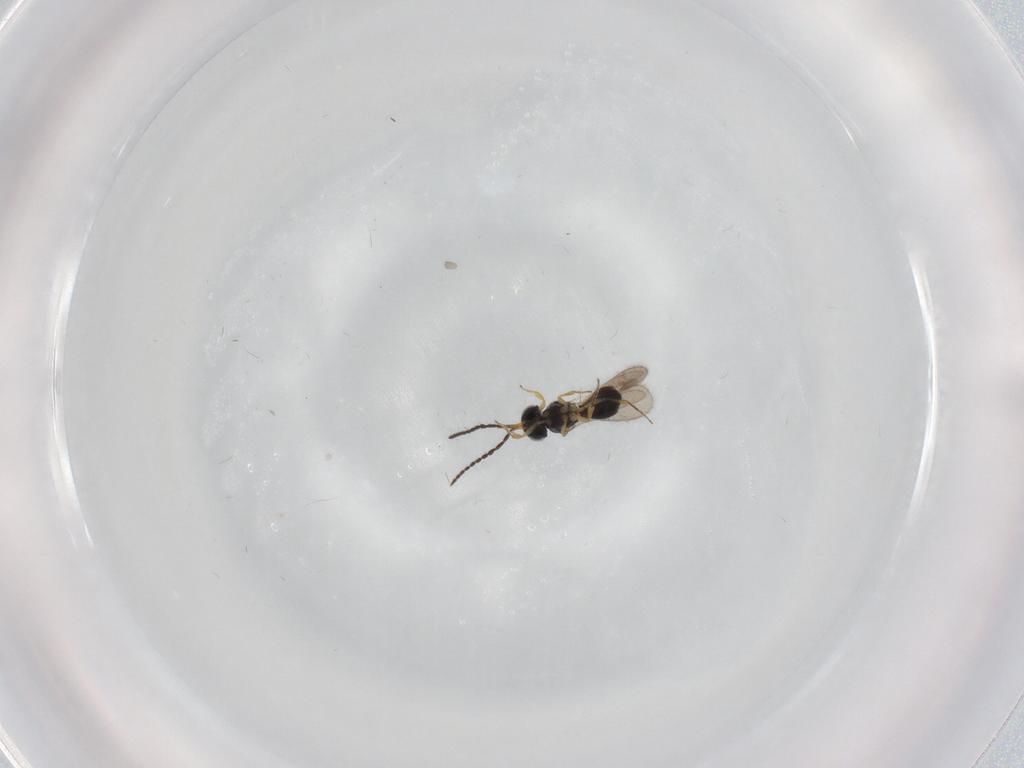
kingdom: Animalia
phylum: Arthropoda
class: Insecta
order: Hymenoptera
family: Scelionidae
